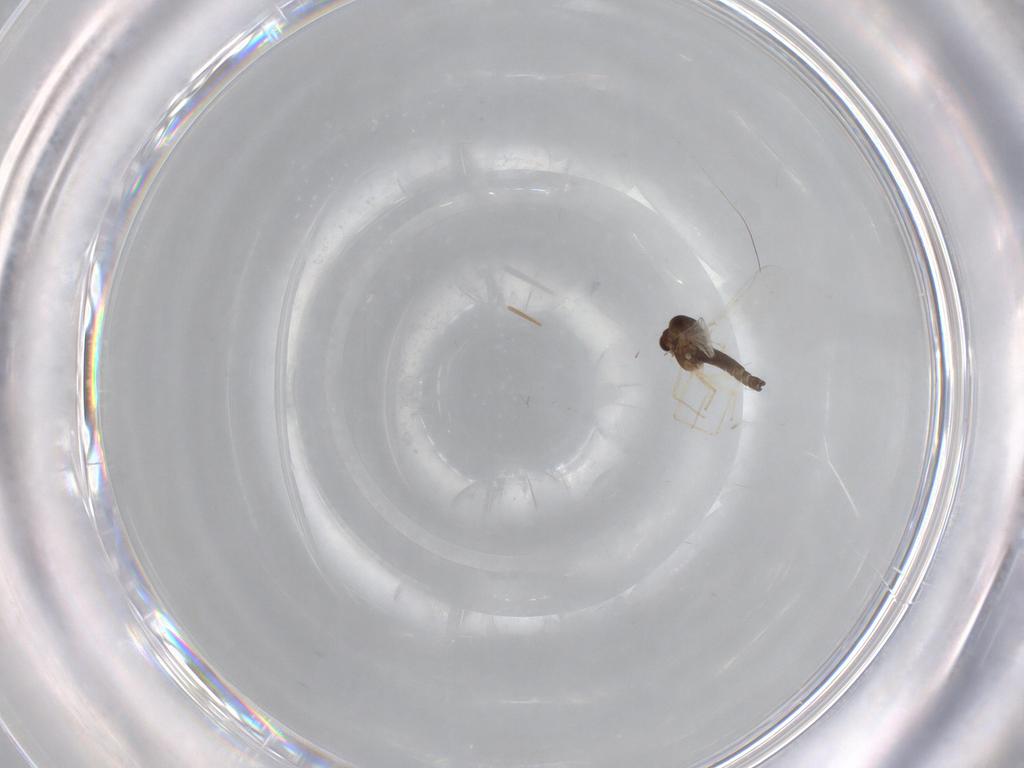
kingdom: Animalia
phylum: Arthropoda
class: Insecta
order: Diptera
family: Chironomidae
